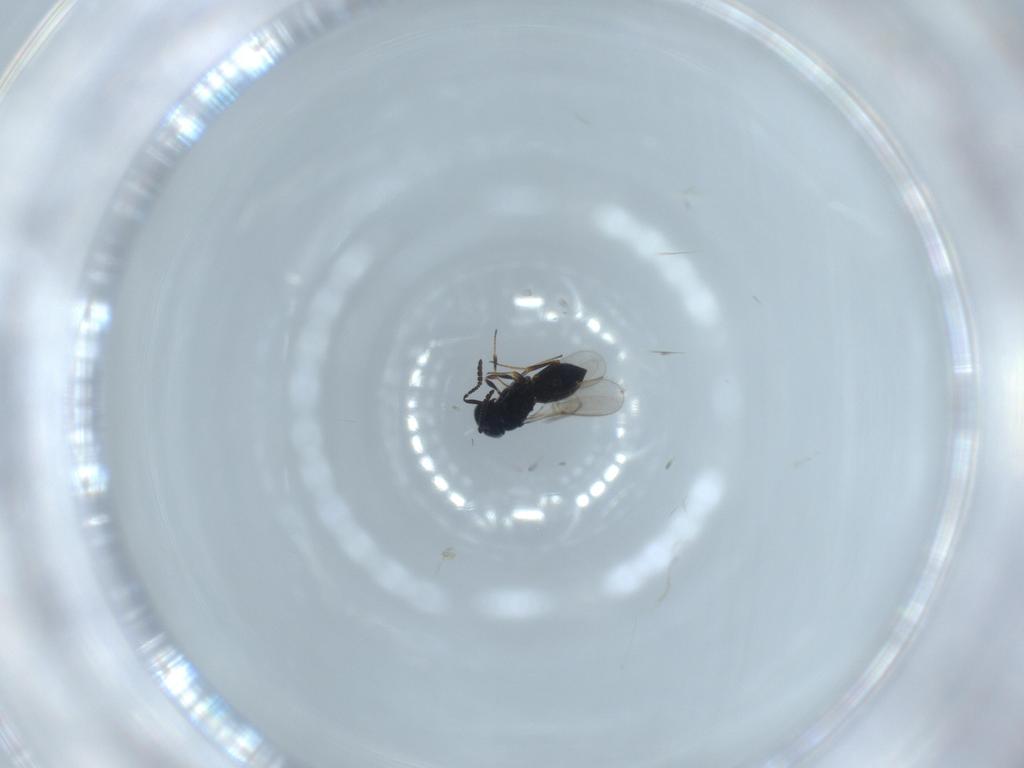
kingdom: Animalia
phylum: Arthropoda
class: Insecta
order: Hymenoptera
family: Scelionidae
